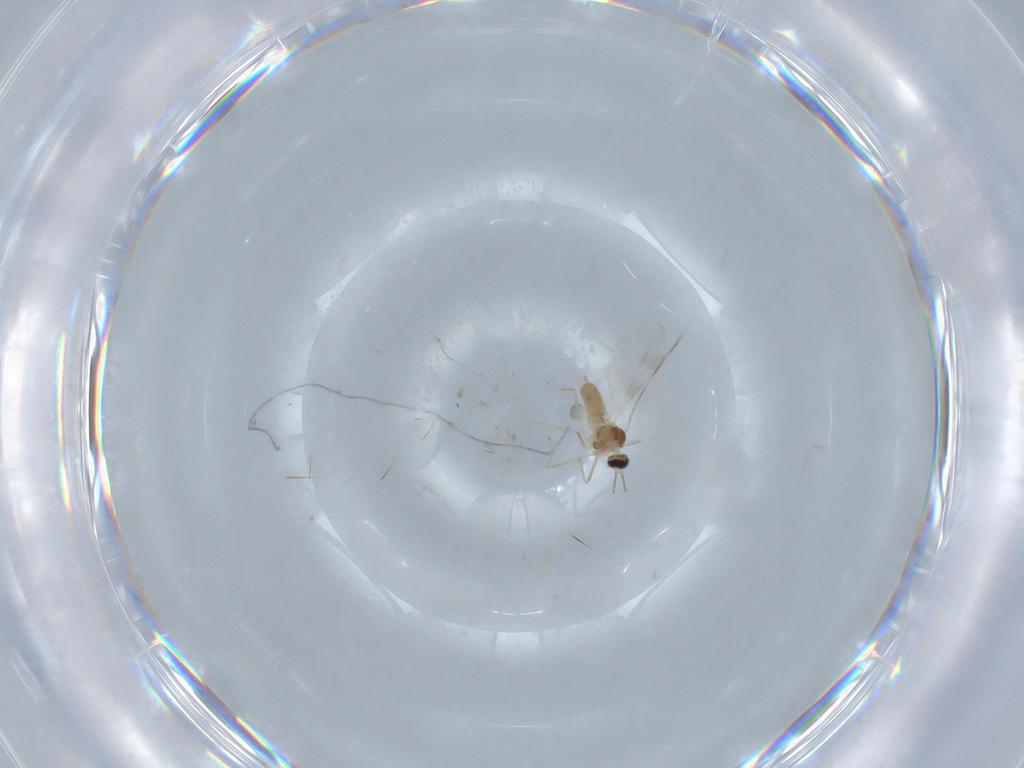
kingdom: Animalia
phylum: Arthropoda
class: Insecta
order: Diptera
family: Cecidomyiidae
